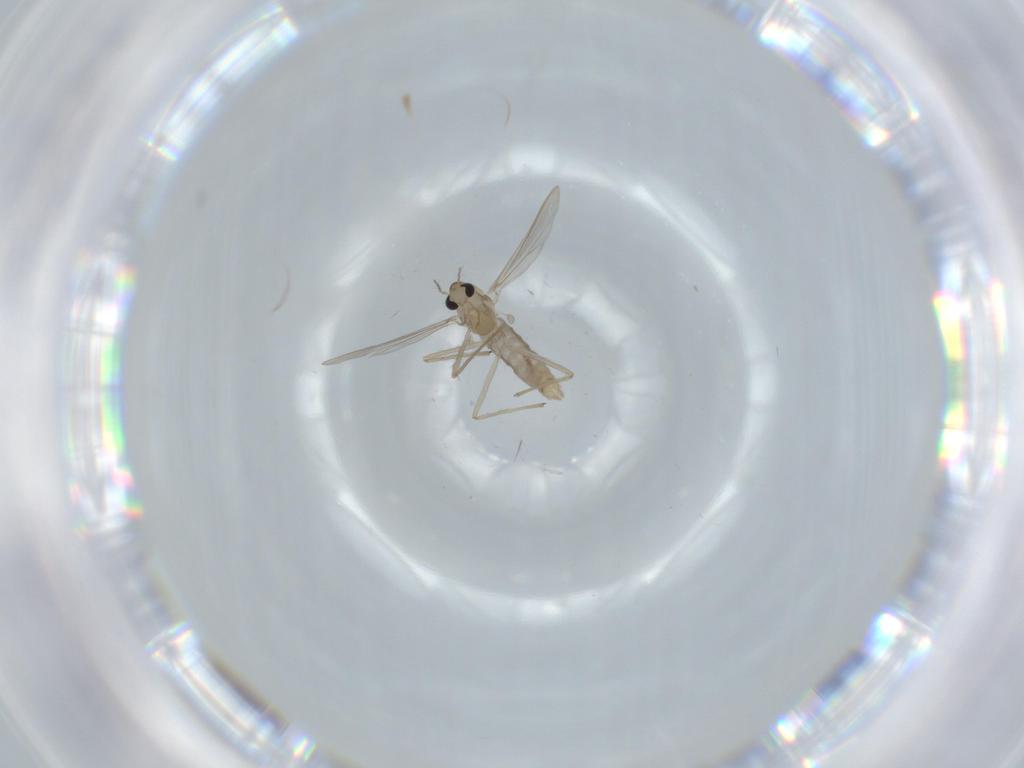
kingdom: Animalia
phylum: Arthropoda
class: Insecta
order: Diptera
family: Chironomidae
